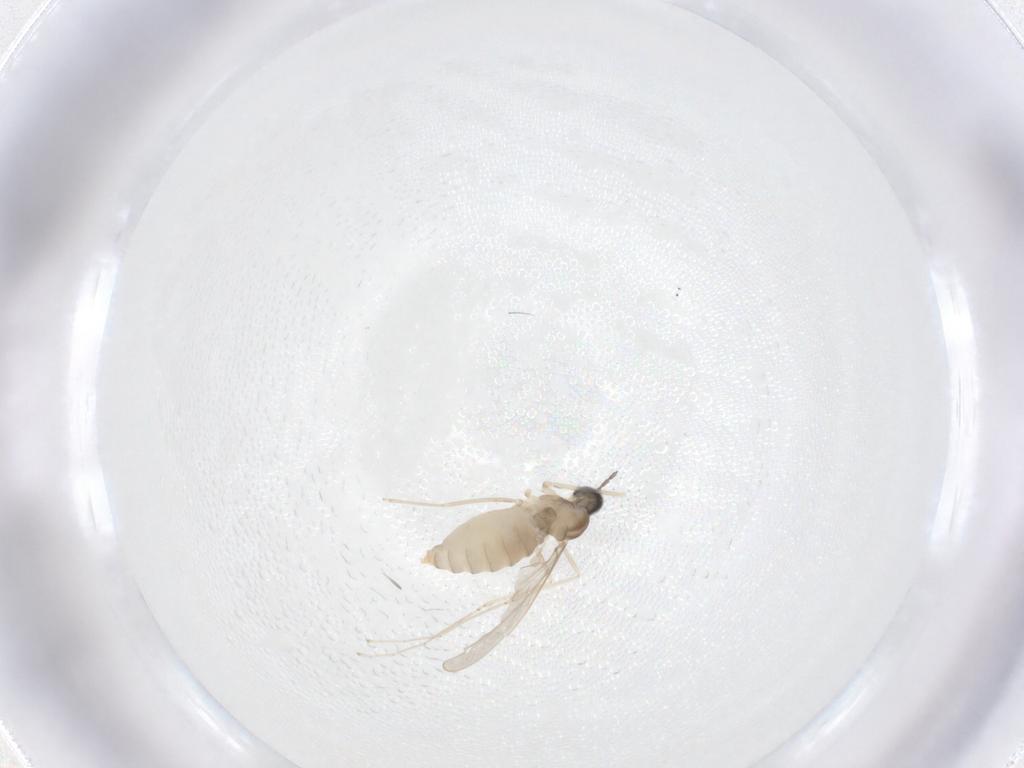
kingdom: Animalia
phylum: Arthropoda
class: Insecta
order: Diptera
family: Cecidomyiidae
